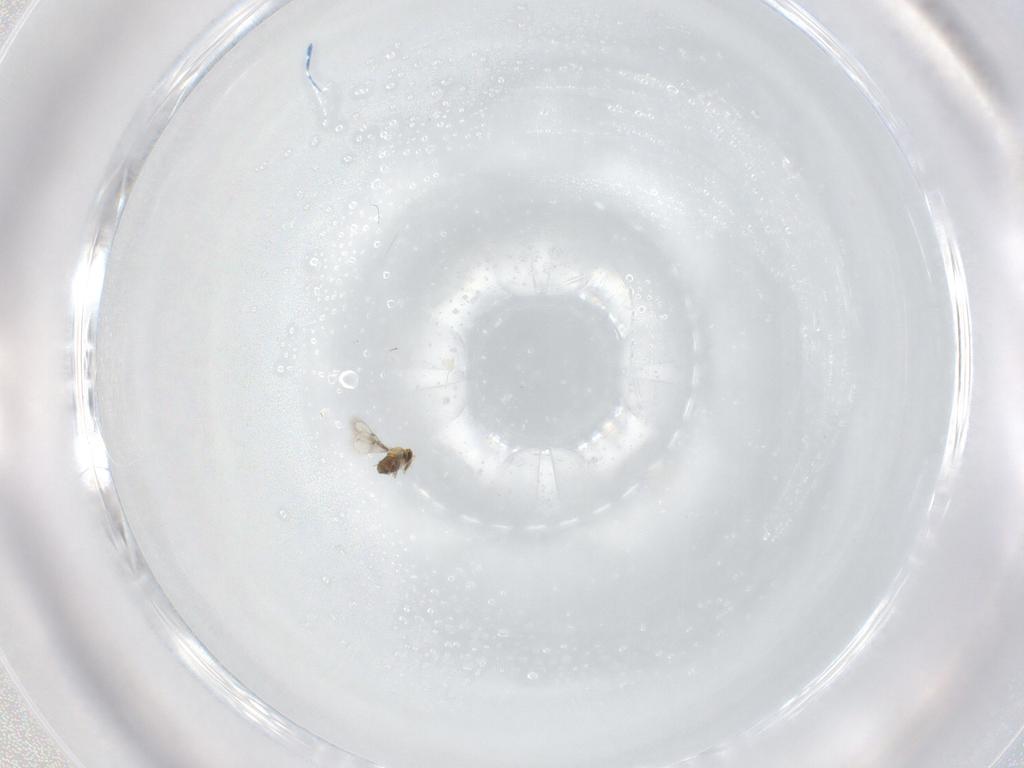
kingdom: Animalia
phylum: Arthropoda
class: Insecta
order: Hymenoptera
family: Trichogrammatidae
